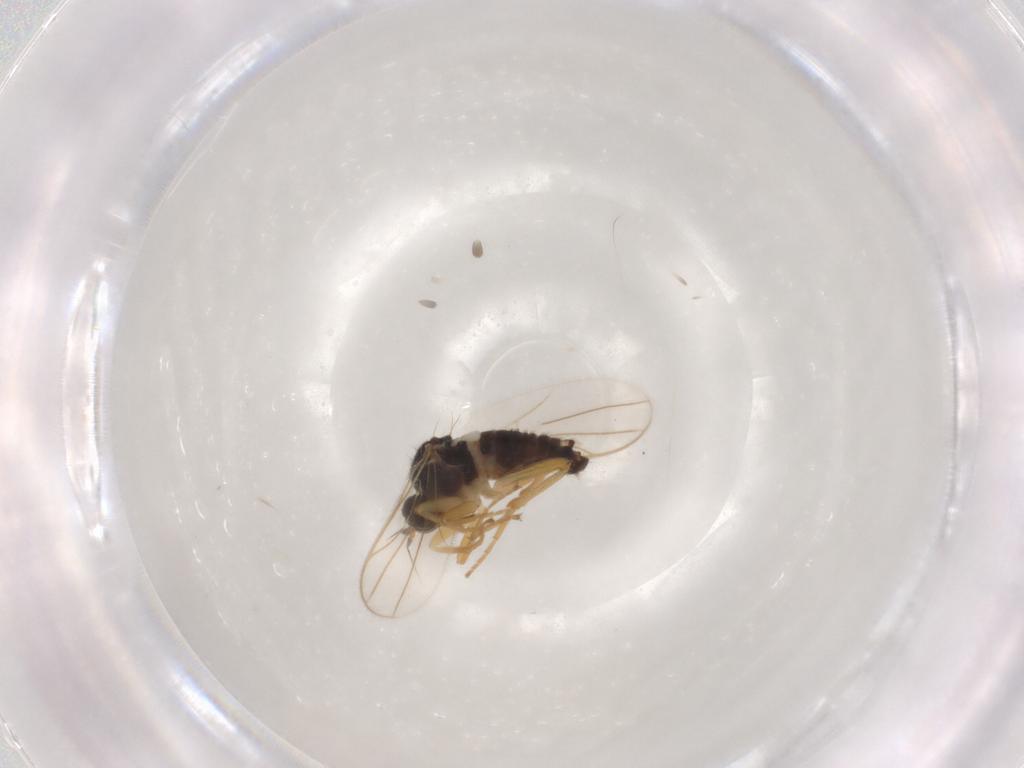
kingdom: Animalia
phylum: Arthropoda
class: Insecta
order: Diptera
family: Hybotidae
